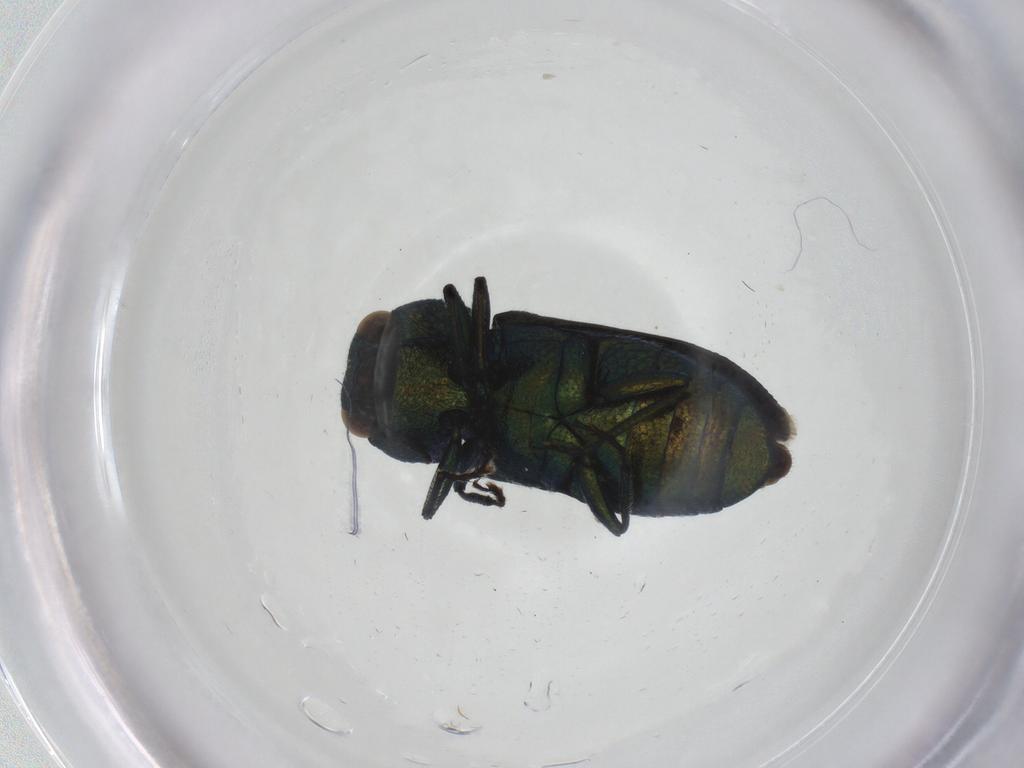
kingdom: Animalia
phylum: Arthropoda
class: Insecta
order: Coleoptera
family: Buprestidae
